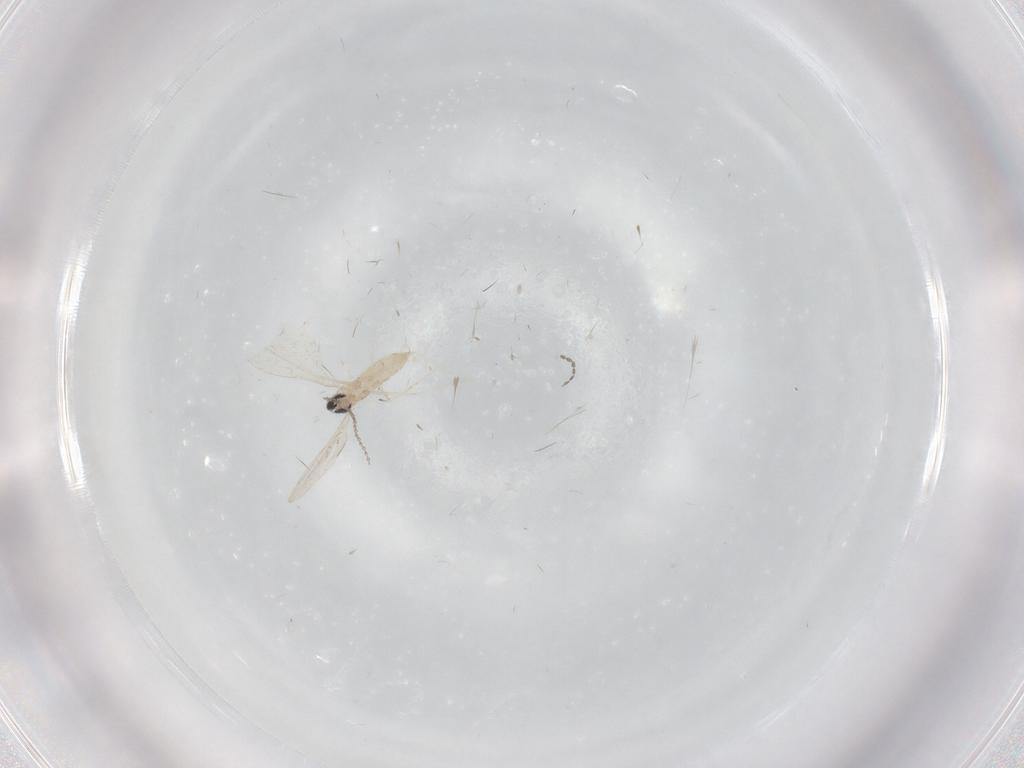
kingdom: Animalia
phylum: Arthropoda
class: Insecta
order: Diptera
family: Cecidomyiidae
